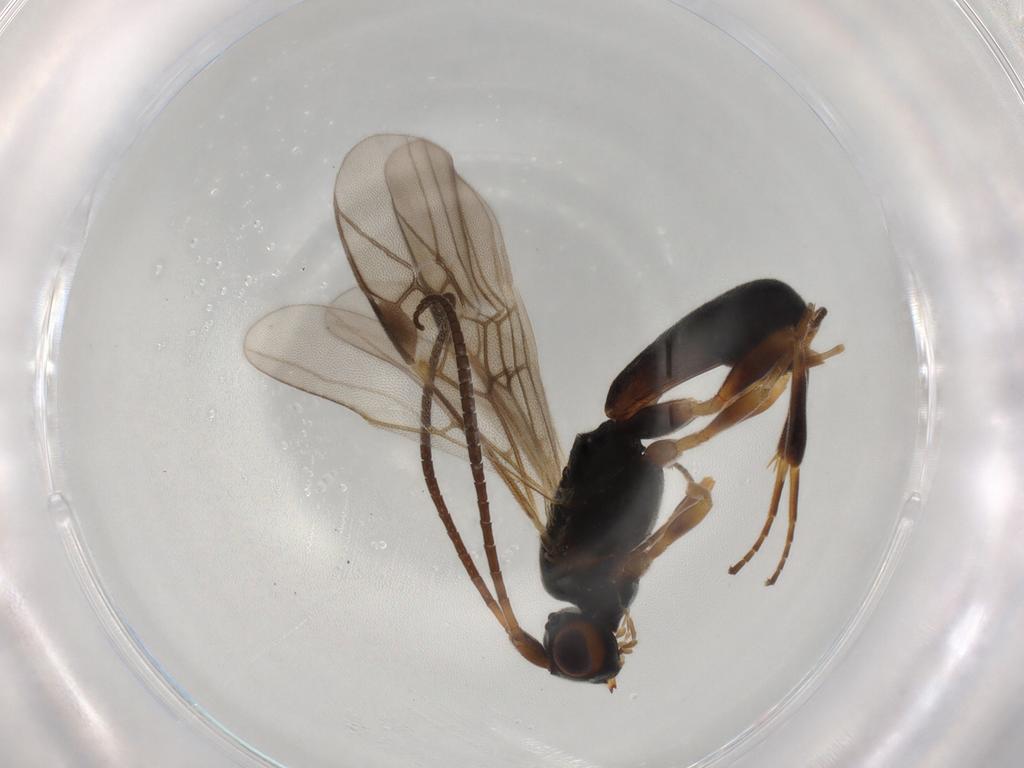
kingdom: Animalia
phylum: Arthropoda
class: Insecta
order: Hymenoptera
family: Braconidae
